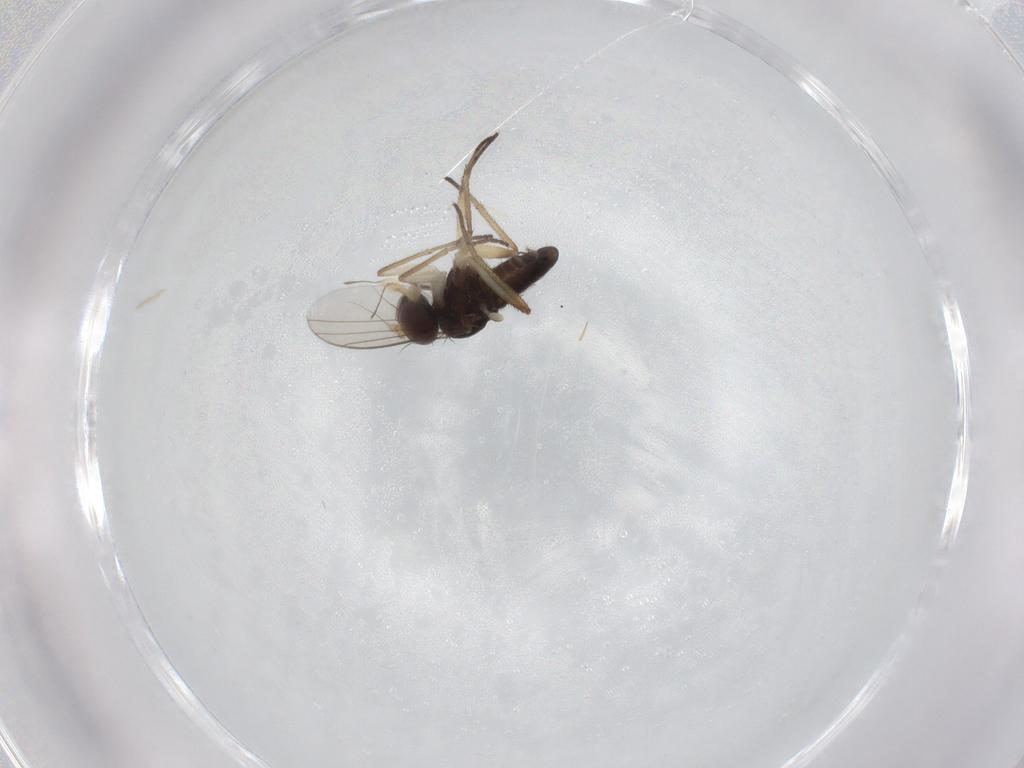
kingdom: Animalia
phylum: Arthropoda
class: Insecta
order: Diptera
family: Dolichopodidae
